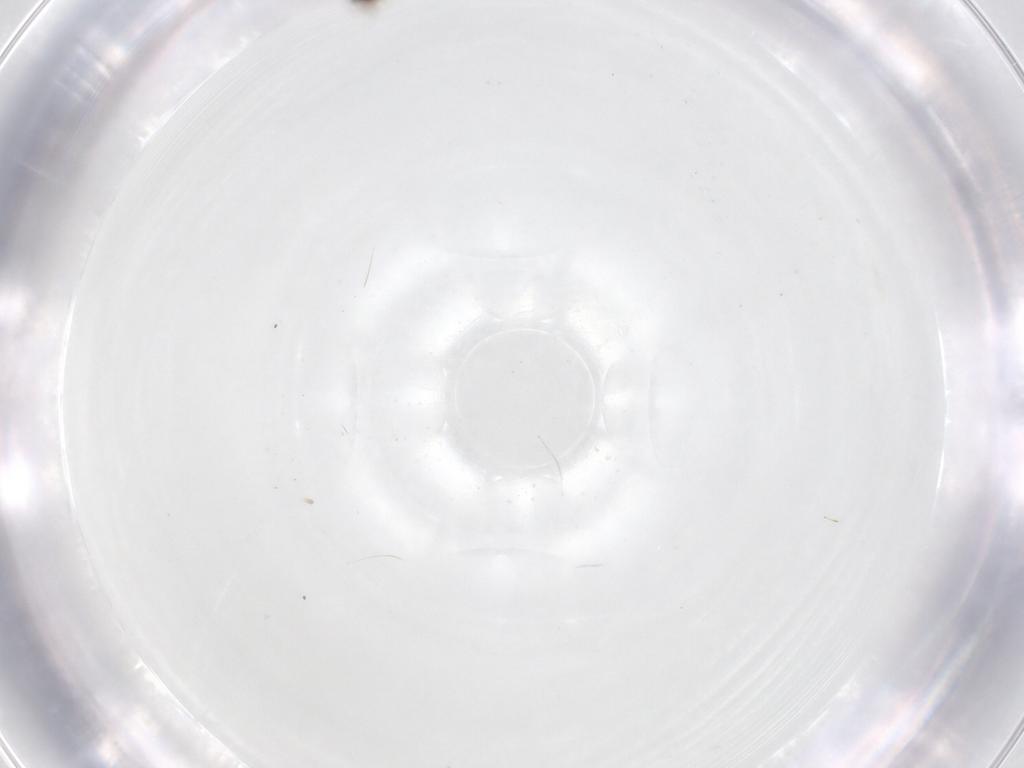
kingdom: Animalia
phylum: Arthropoda
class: Insecta
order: Blattodea
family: Blaberidae
